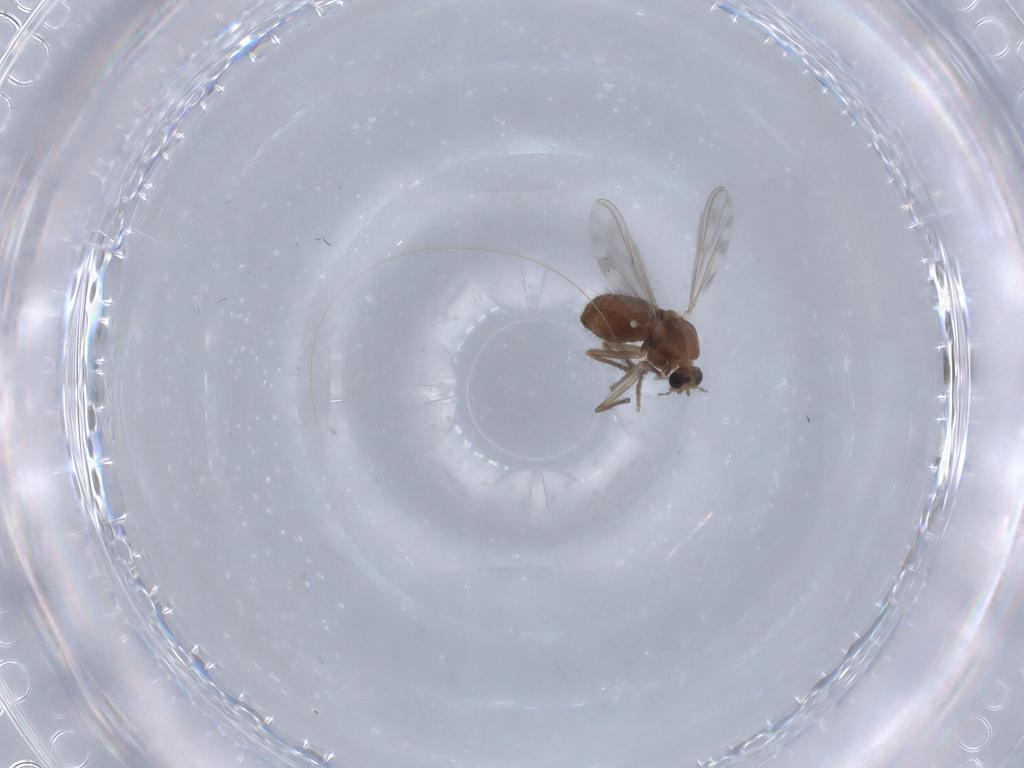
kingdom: Animalia
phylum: Arthropoda
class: Insecta
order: Diptera
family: Chironomidae
